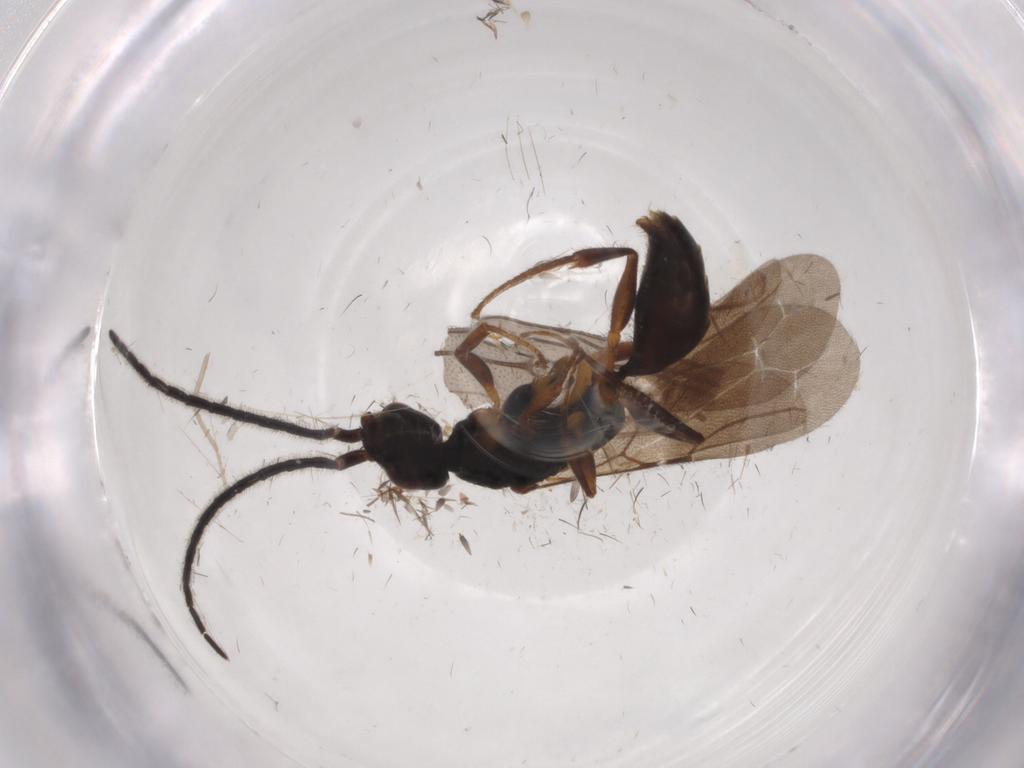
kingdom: Animalia
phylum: Arthropoda
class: Insecta
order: Hymenoptera
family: Bethylidae
